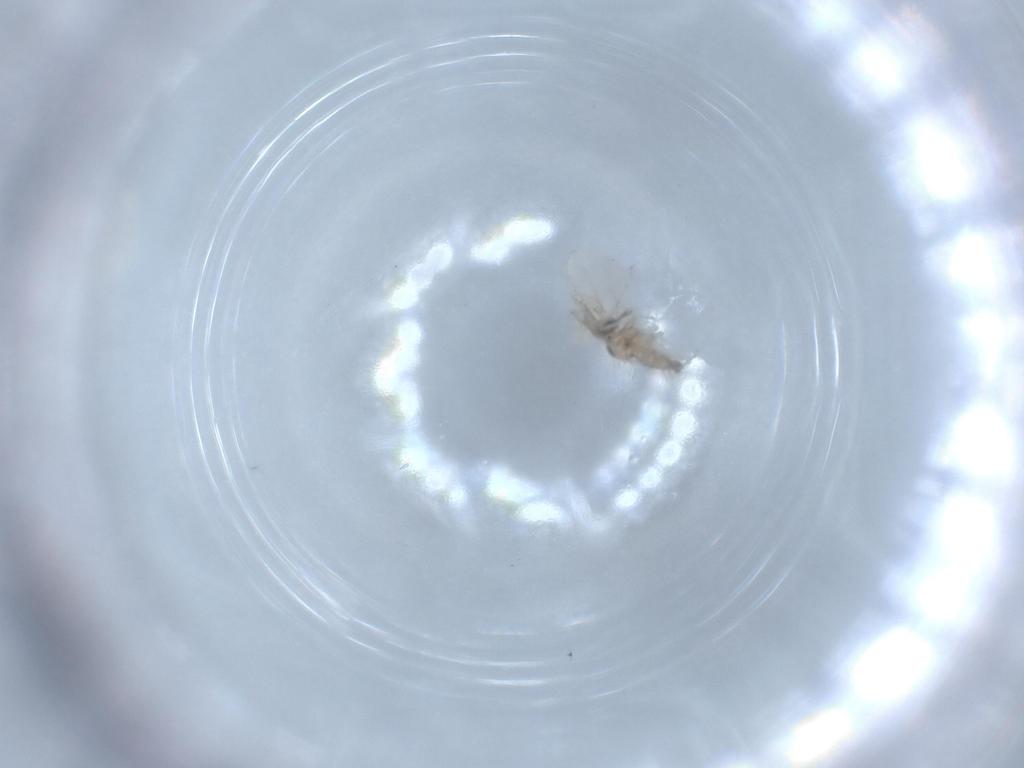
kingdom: Animalia
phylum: Arthropoda
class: Insecta
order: Diptera
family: Cecidomyiidae
